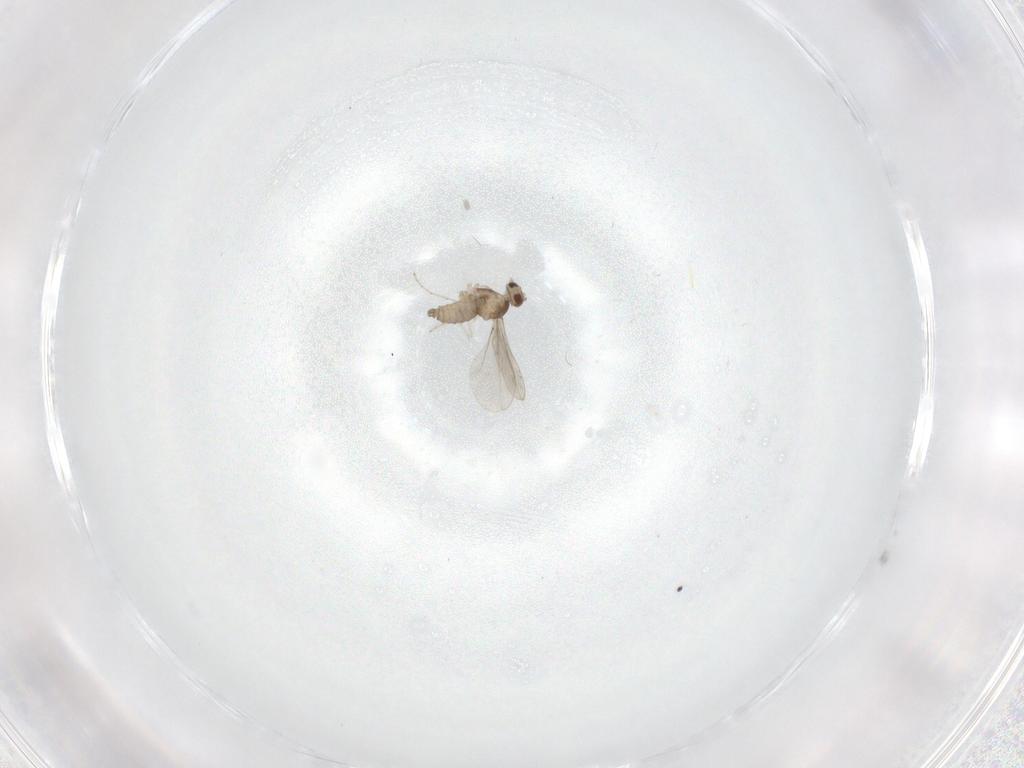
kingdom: Animalia
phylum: Arthropoda
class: Insecta
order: Diptera
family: Cecidomyiidae
